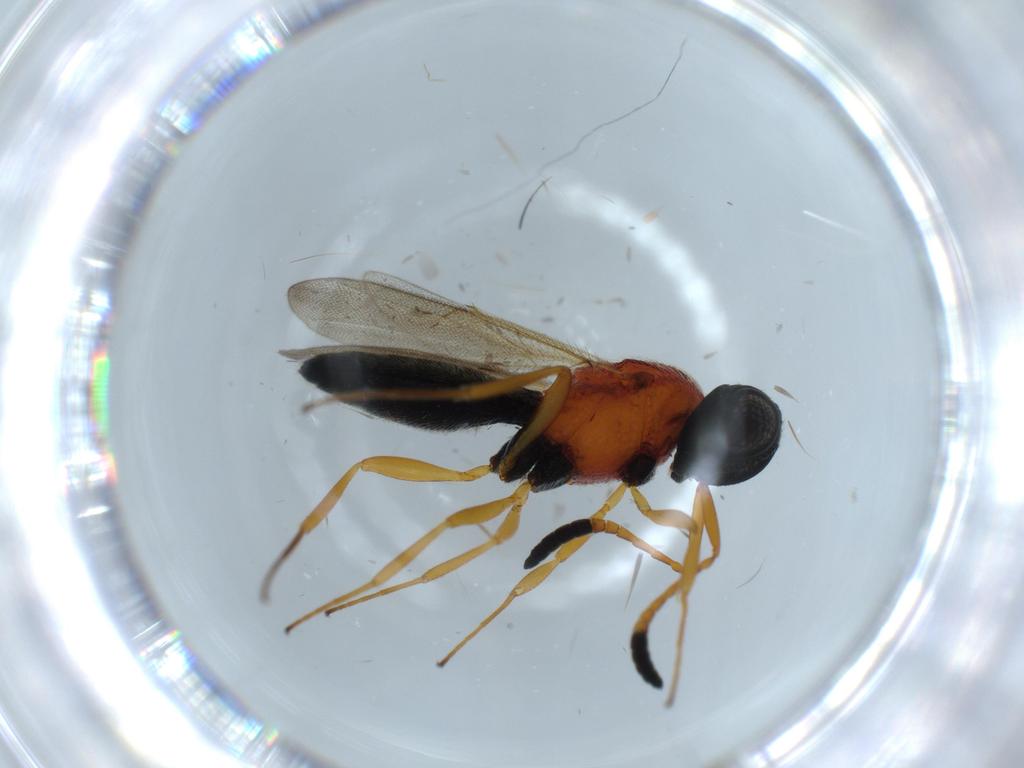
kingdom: Animalia
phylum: Arthropoda
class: Insecta
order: Hymenoptera
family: Scelionidae
